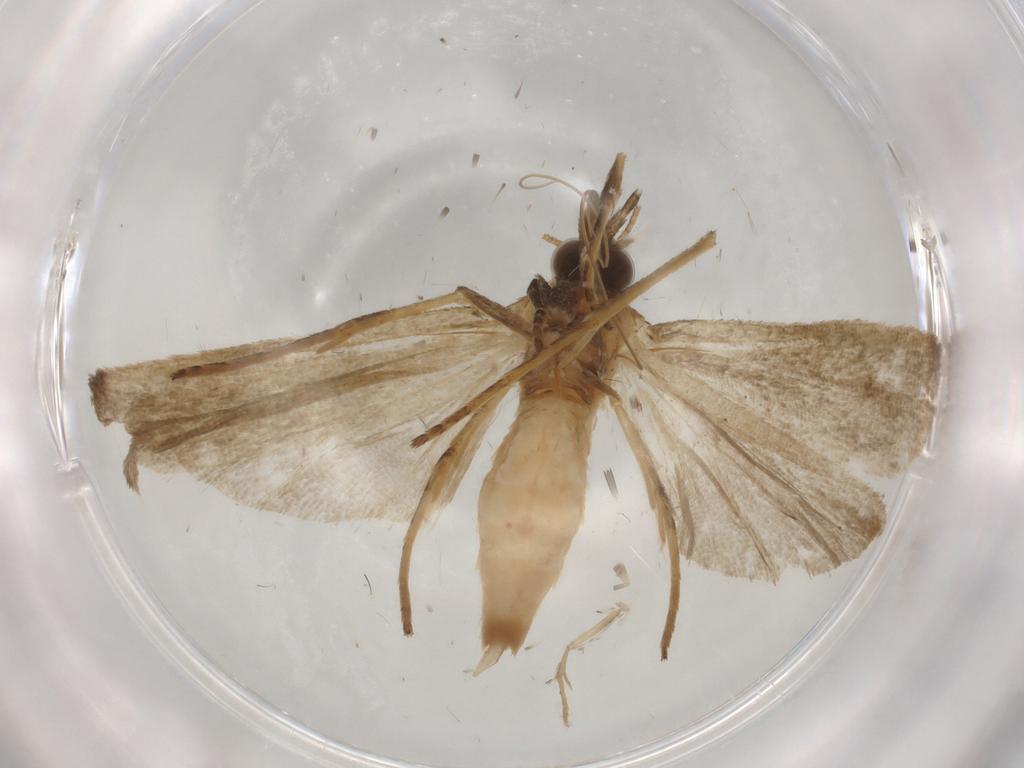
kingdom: Animalia
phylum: Arthropoda
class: Insecta
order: Lepidoptera
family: Noctuidae
